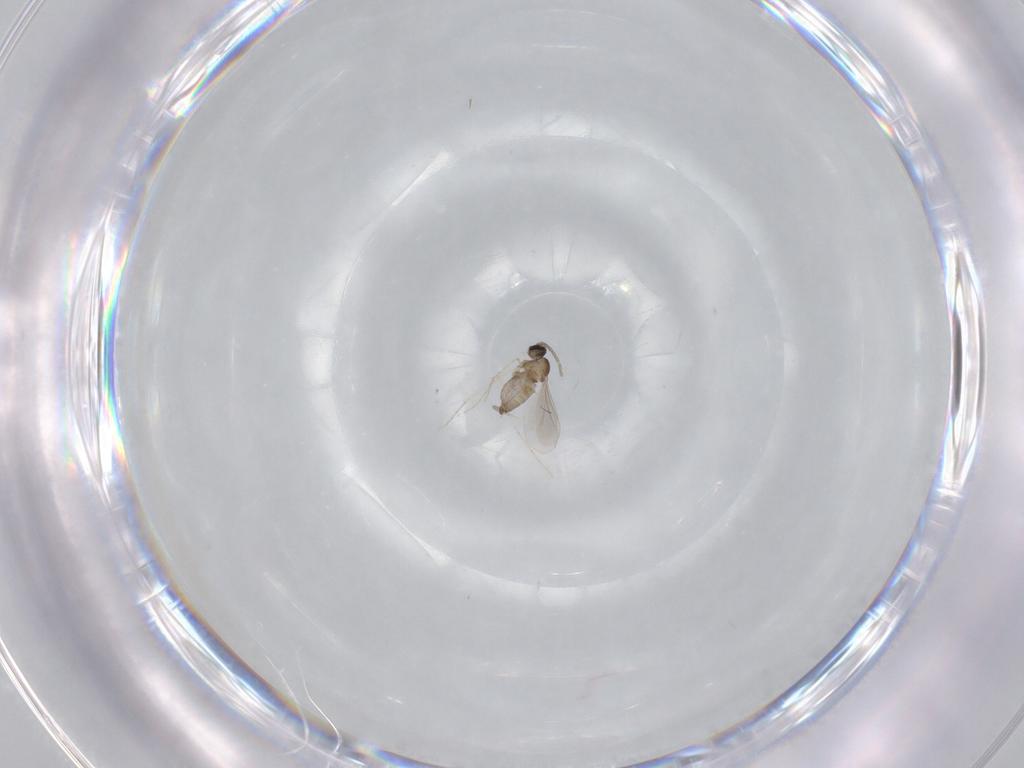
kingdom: Animalia
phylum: Arthropoda
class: Insecta
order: Diptera
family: Cecidomyiidae
